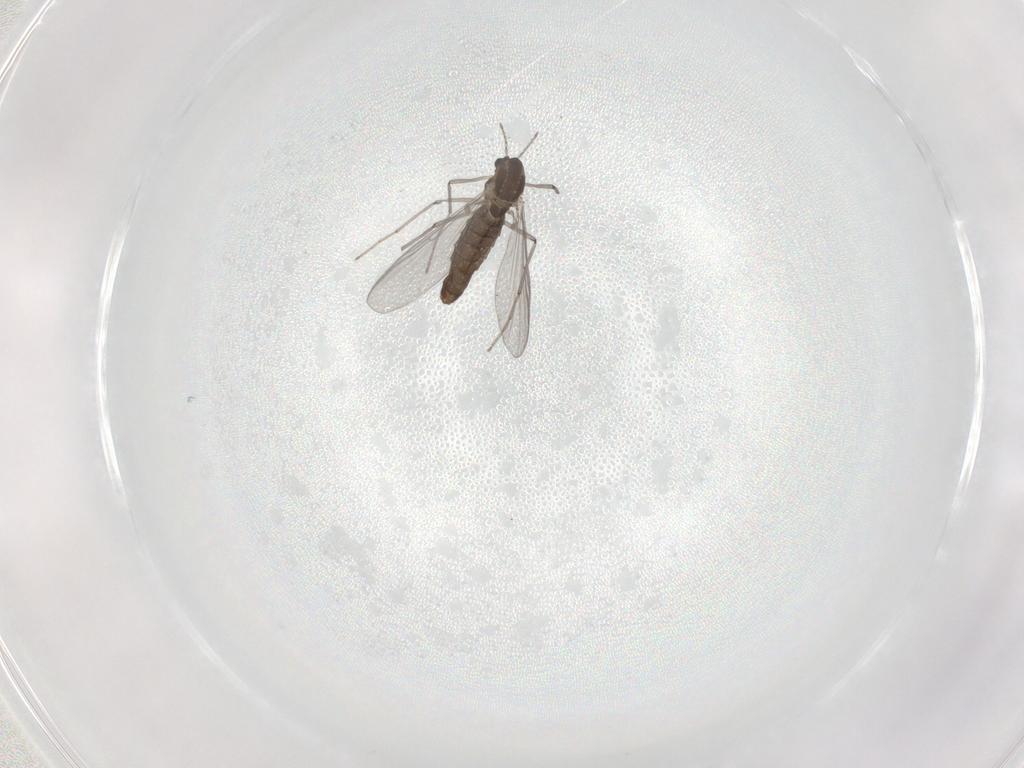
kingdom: Animalia
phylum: Arthropoda
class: Insecta
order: Diptera
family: Chironomidae
